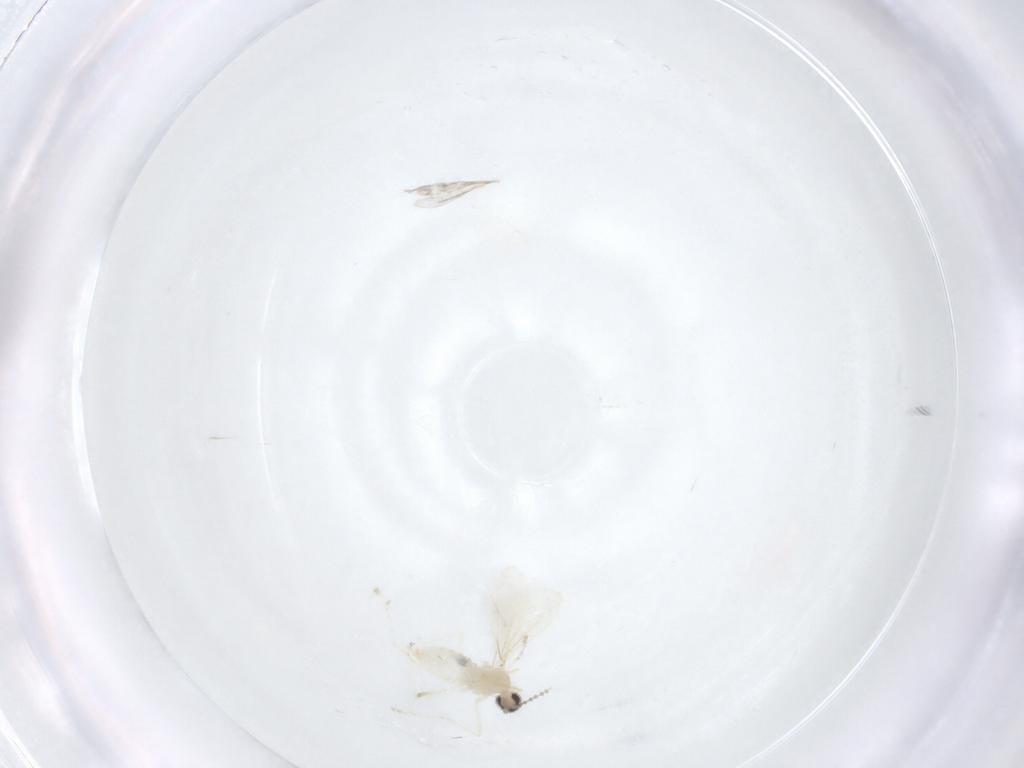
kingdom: Animalia
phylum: Arthropoda
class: Insecta
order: Diptera
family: Cecidomyiidae
